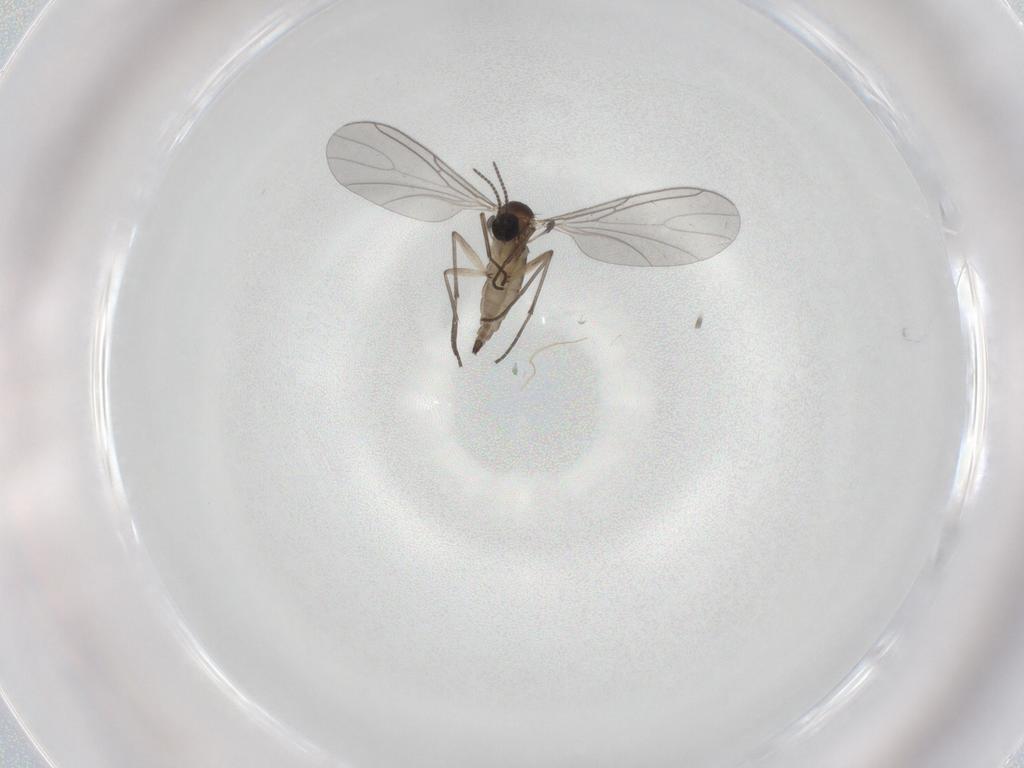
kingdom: Animalia
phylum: Arthropoda
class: Insecta
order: Diptera
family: Sciaridae
